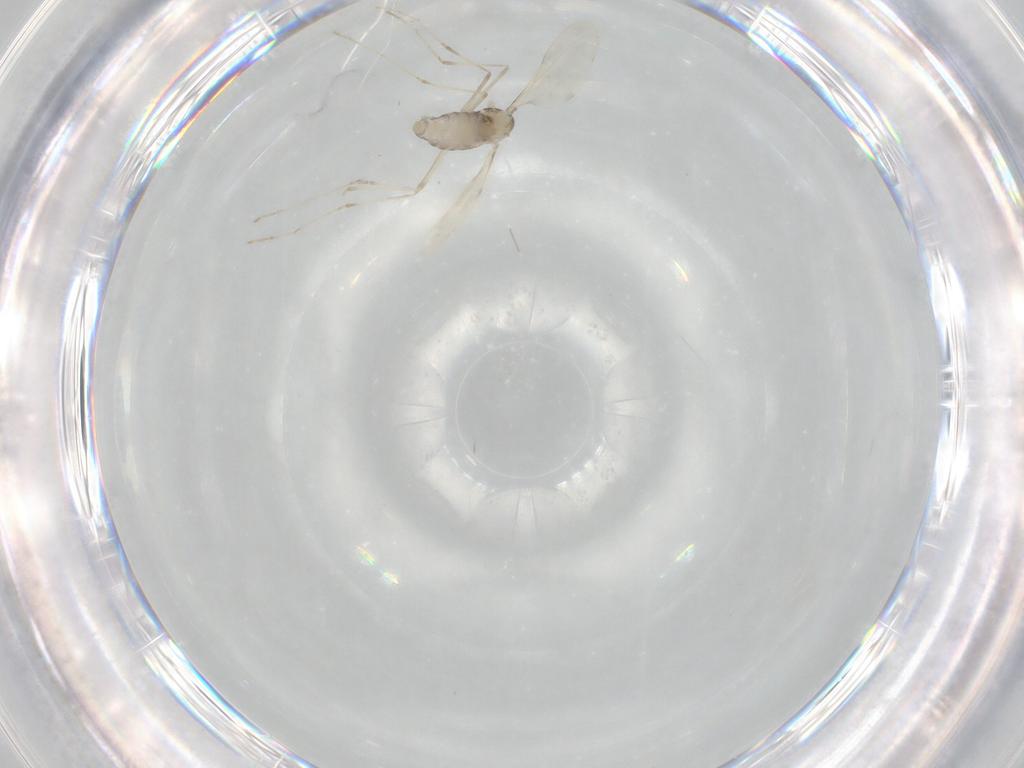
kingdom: Animalia
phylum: Arthropoda
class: Insecta
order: Diptera
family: Cecidomyiidae
